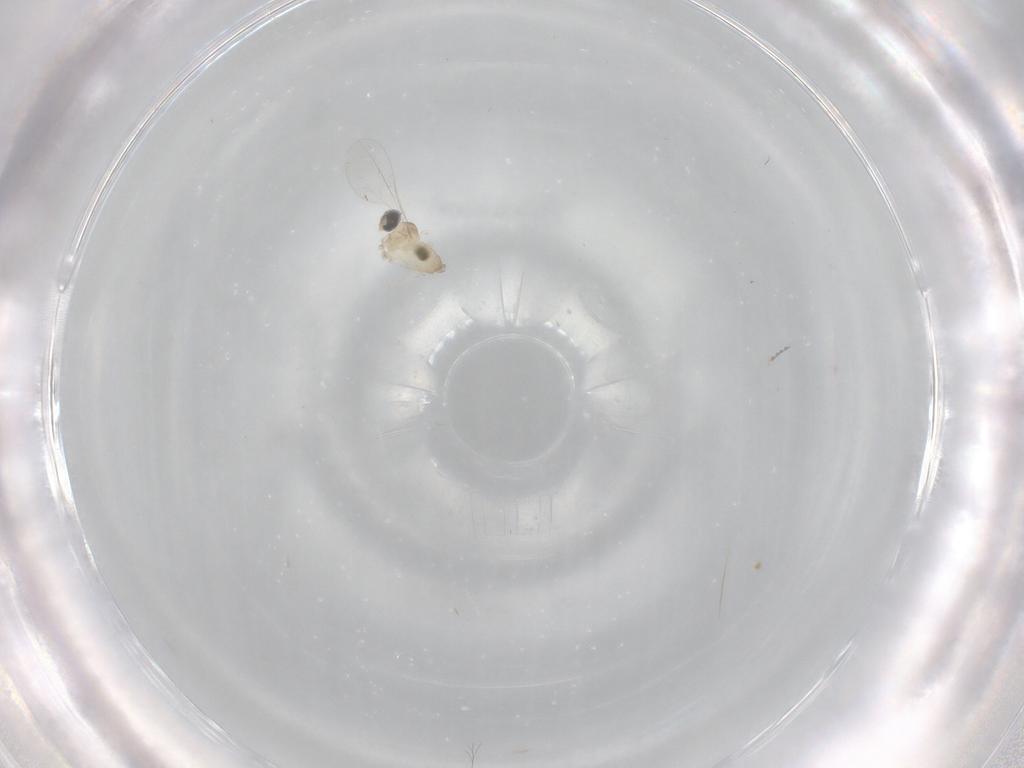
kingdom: Animalia
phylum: Arthropoda
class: Insecta
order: Diptera
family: Cecidomyiidae
